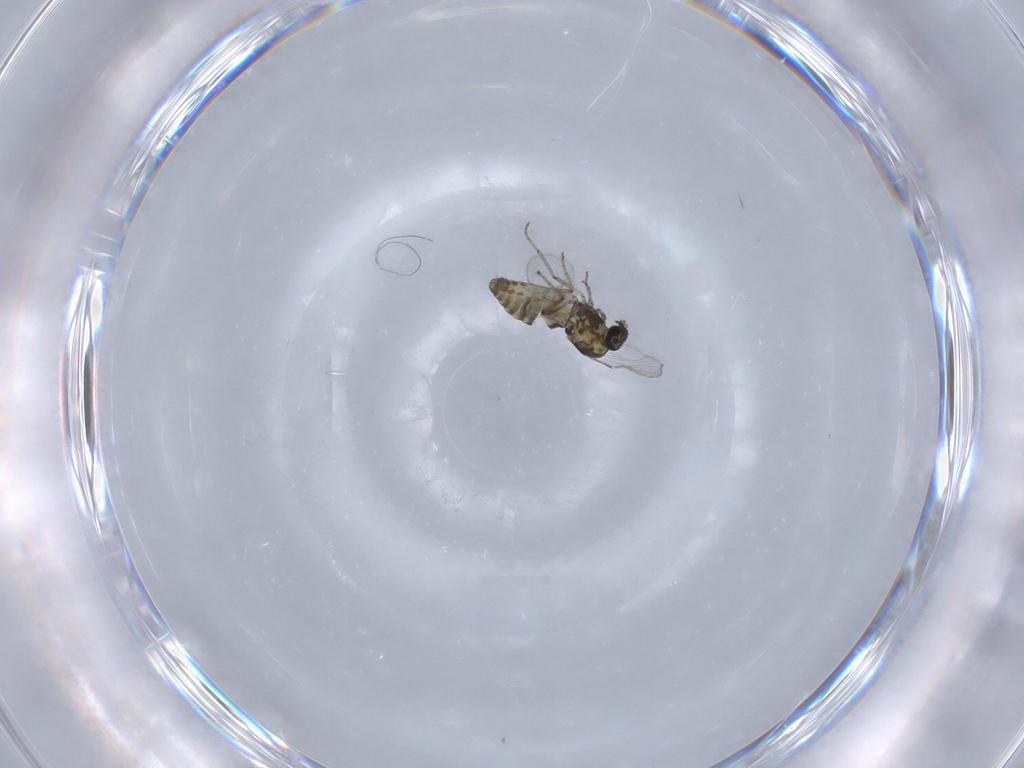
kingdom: Animalia
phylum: Arthropoda
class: Insecta
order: Diptera
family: Ceratopogonidae
